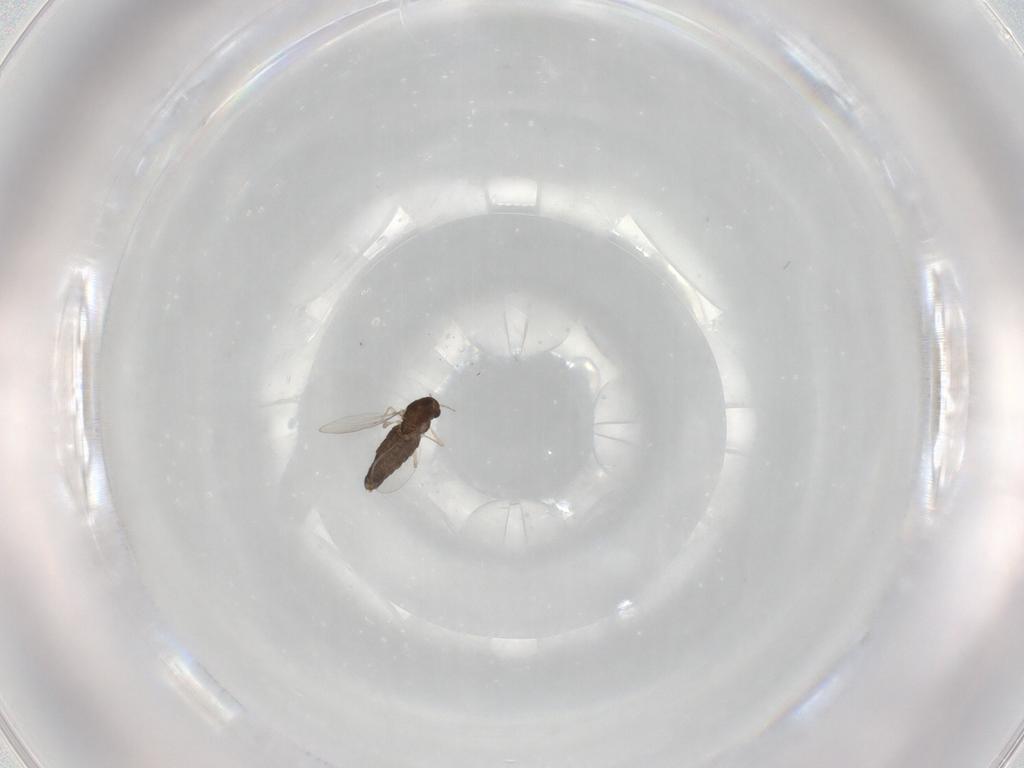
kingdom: Animalia
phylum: Arthropoda
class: Insecta
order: Diptera
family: Chironomidae
